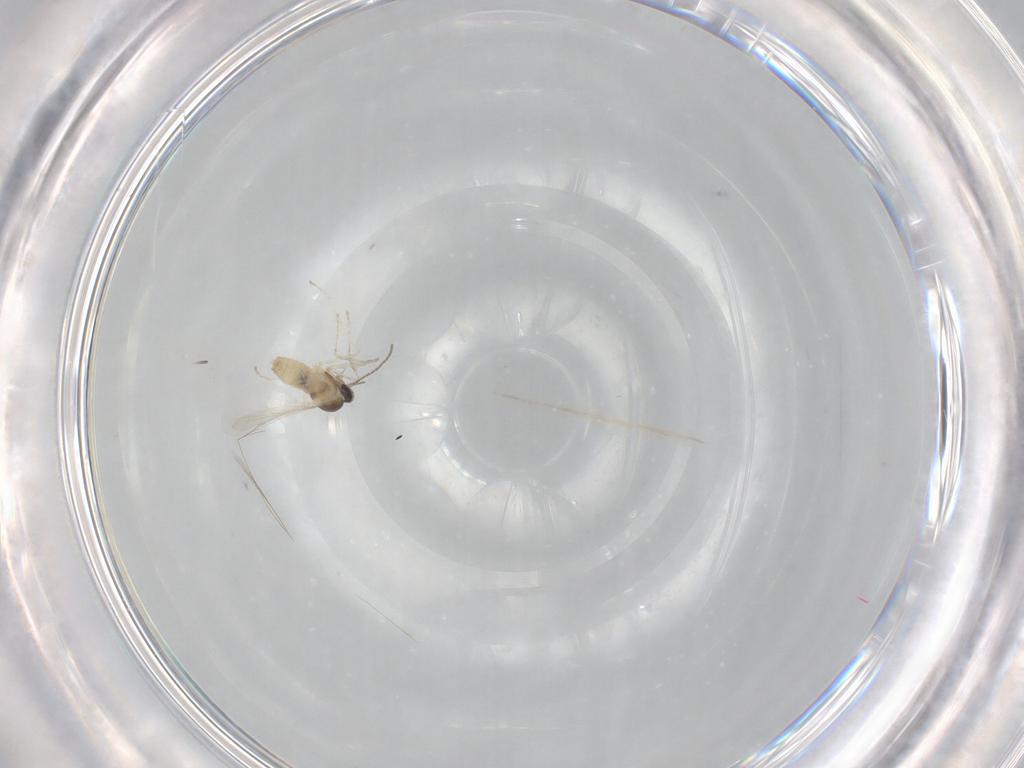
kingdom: Animalia
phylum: Arthropoda
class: Insecta
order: Diptera
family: Cecidomyiidae
